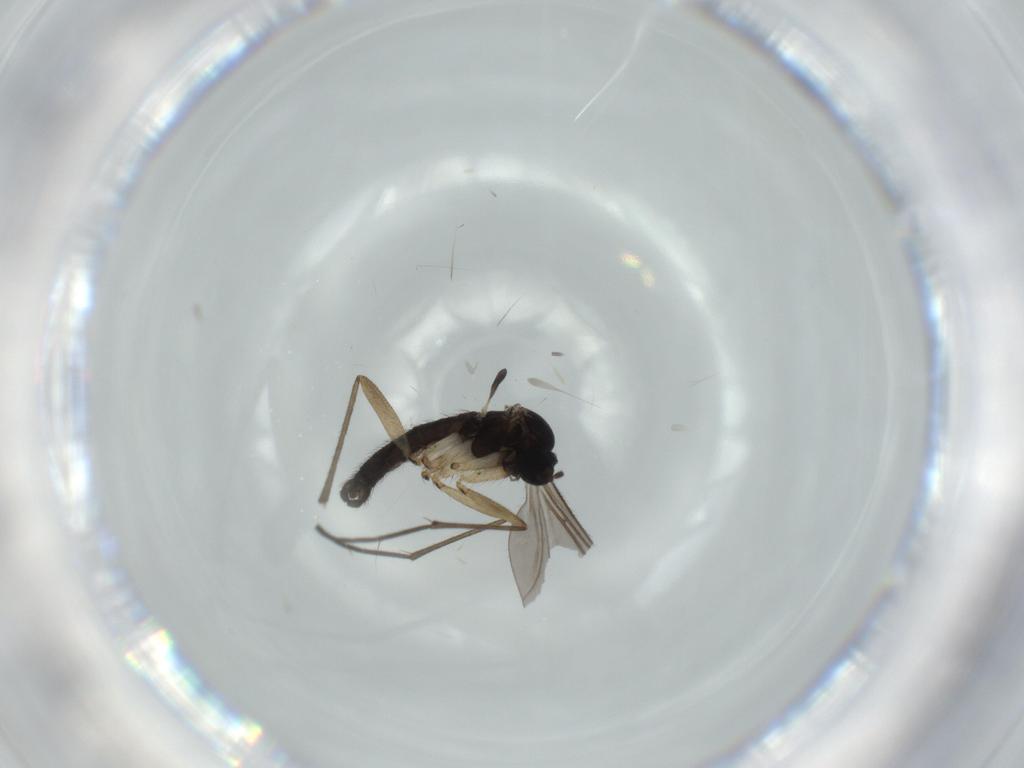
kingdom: Animalia
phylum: Arthropoda
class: Insecta
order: Diptera
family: Sciaridae
